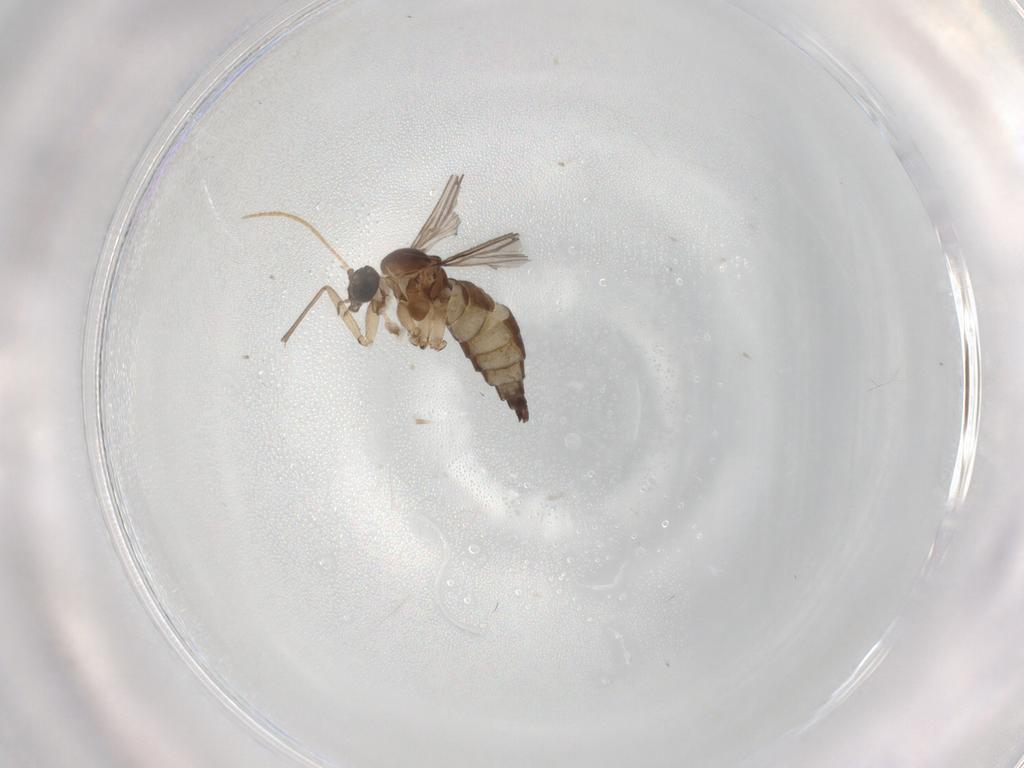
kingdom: Animalia
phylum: Arthropoda
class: Insecta
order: Diptera
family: Sciaridae
